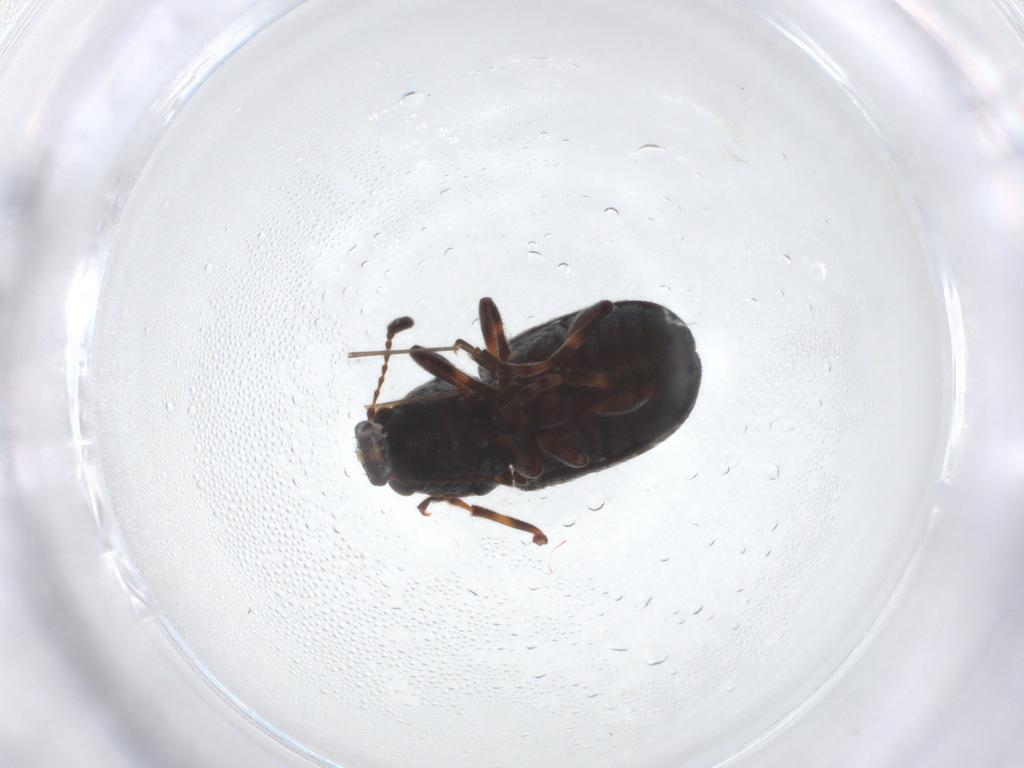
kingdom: Animalia
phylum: Arthropoda
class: Insecta
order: Coleoptera
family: Anthribidae
